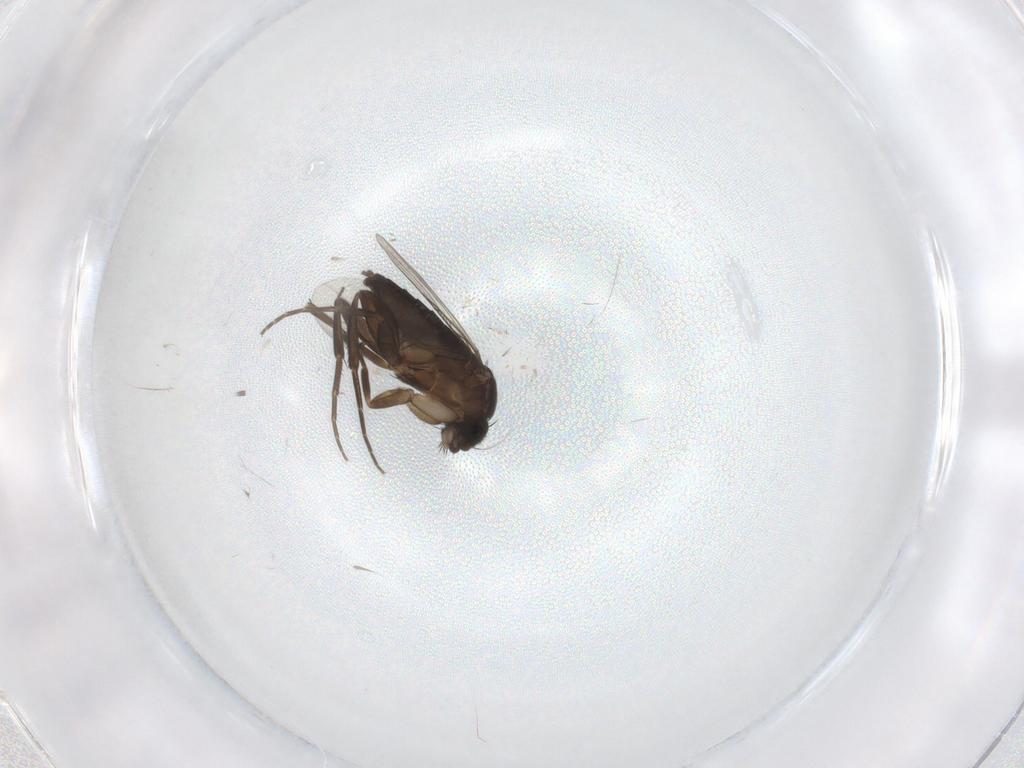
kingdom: Animalia
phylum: Arthropoda
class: Insecta
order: Diptera
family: Phoridae
